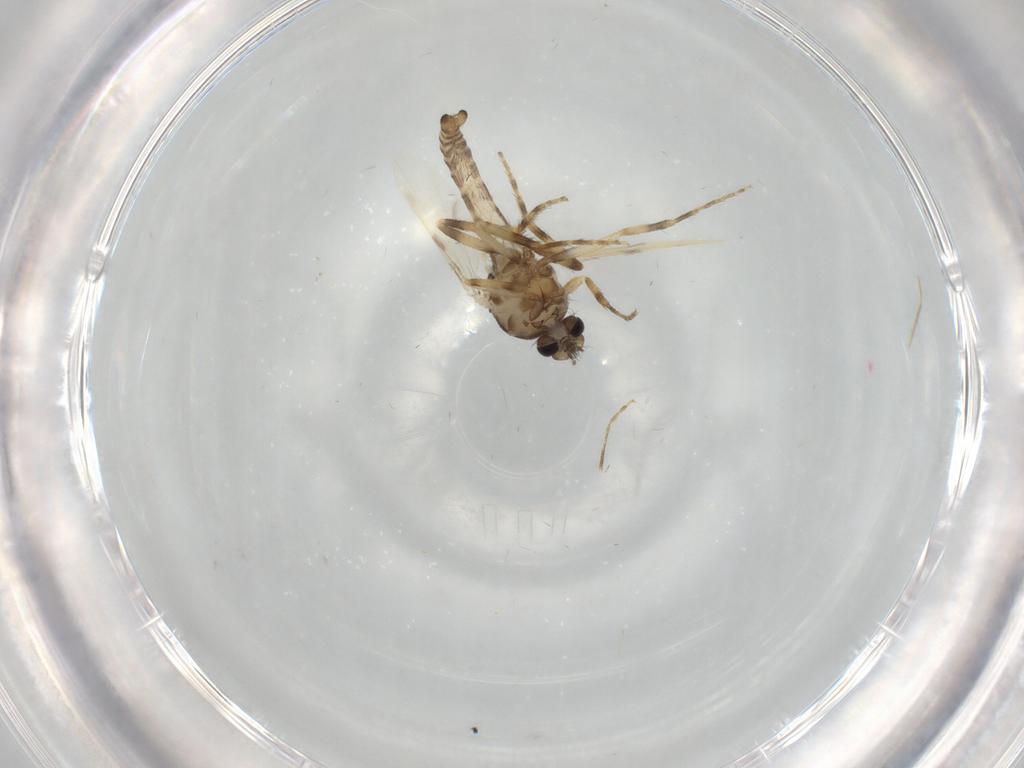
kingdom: Animalia
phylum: Arthropoda
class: Insecta
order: Diptera
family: Ceratopogonidae
